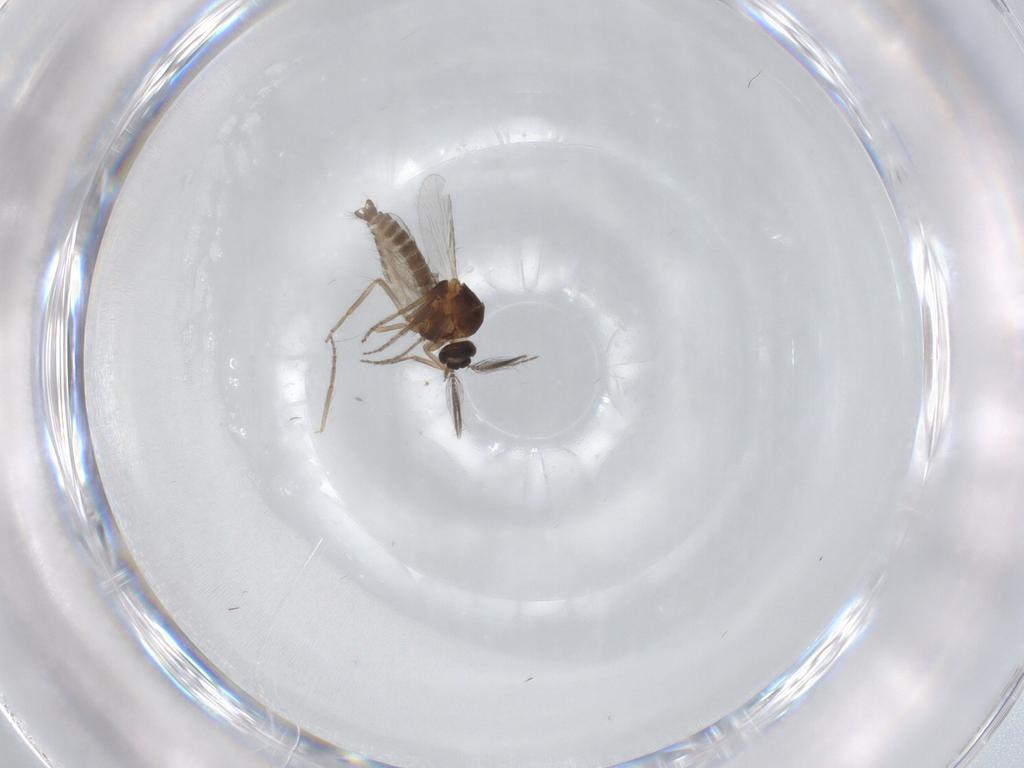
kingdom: Animalia
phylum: Arthropoda
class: Insecta
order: Diptera
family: Ceratopogonidae
